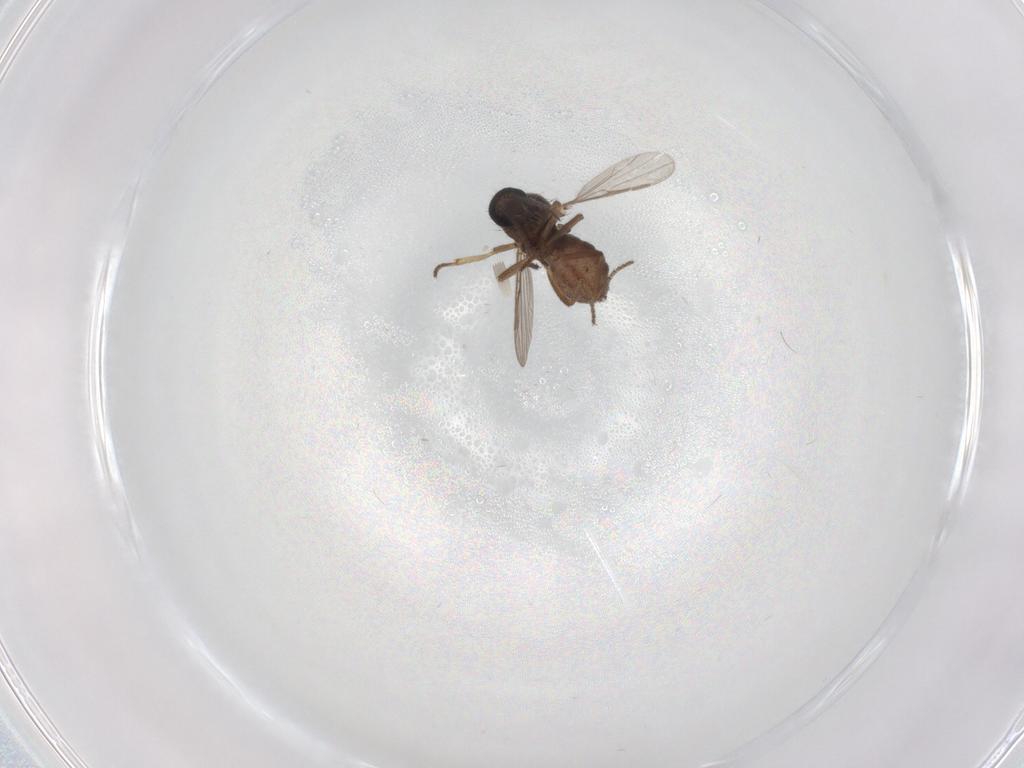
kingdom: Animalia
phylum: Arthropoda
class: Insecta
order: Diptera
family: Ceratopogonidae
